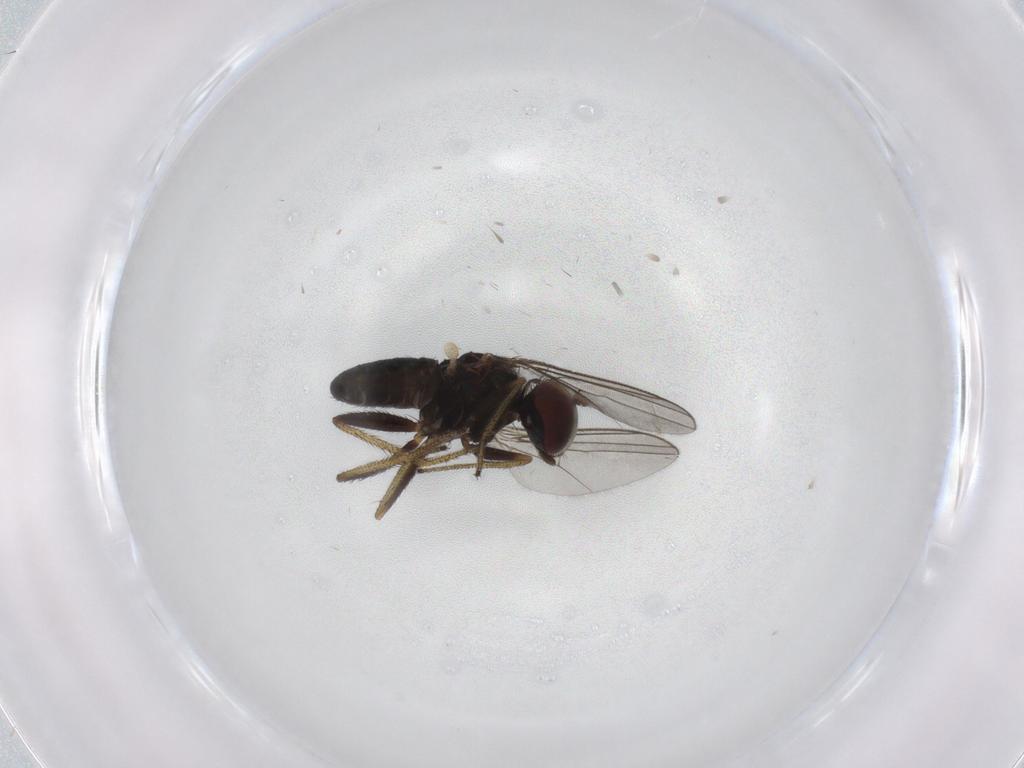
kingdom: Animalia
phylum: Arthropoda
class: Insecta
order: Diptera
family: Dolichopodidae
